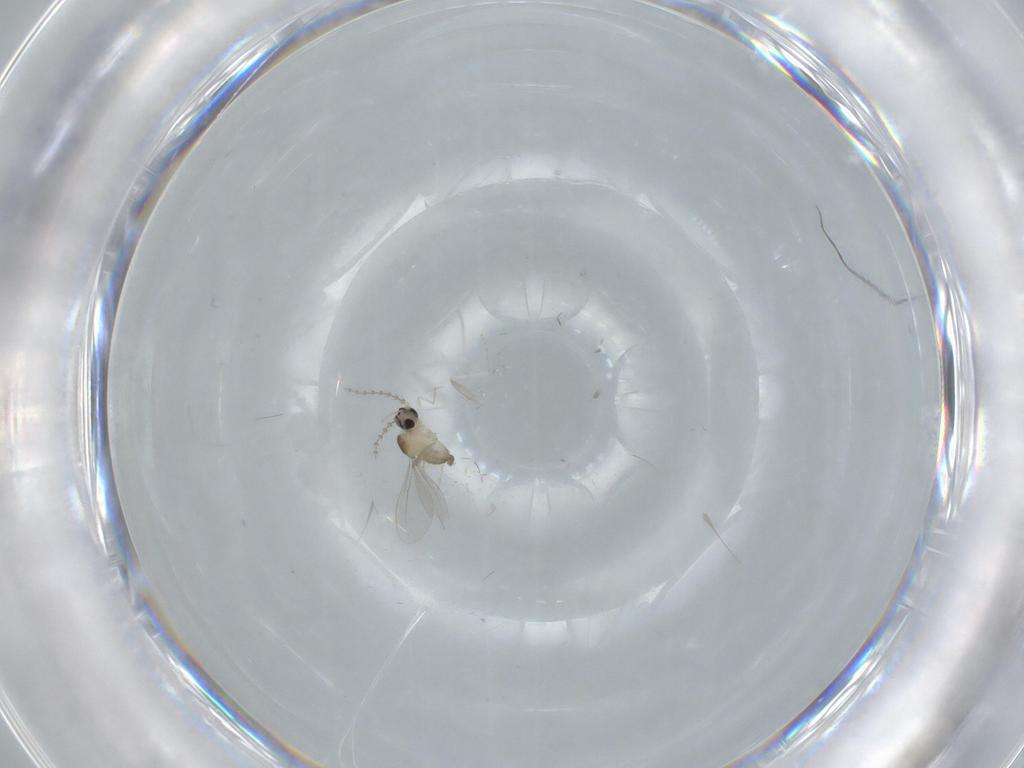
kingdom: Animalia
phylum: Arthropoda
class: Insecta
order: Diptera
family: Cecidomyiidae
